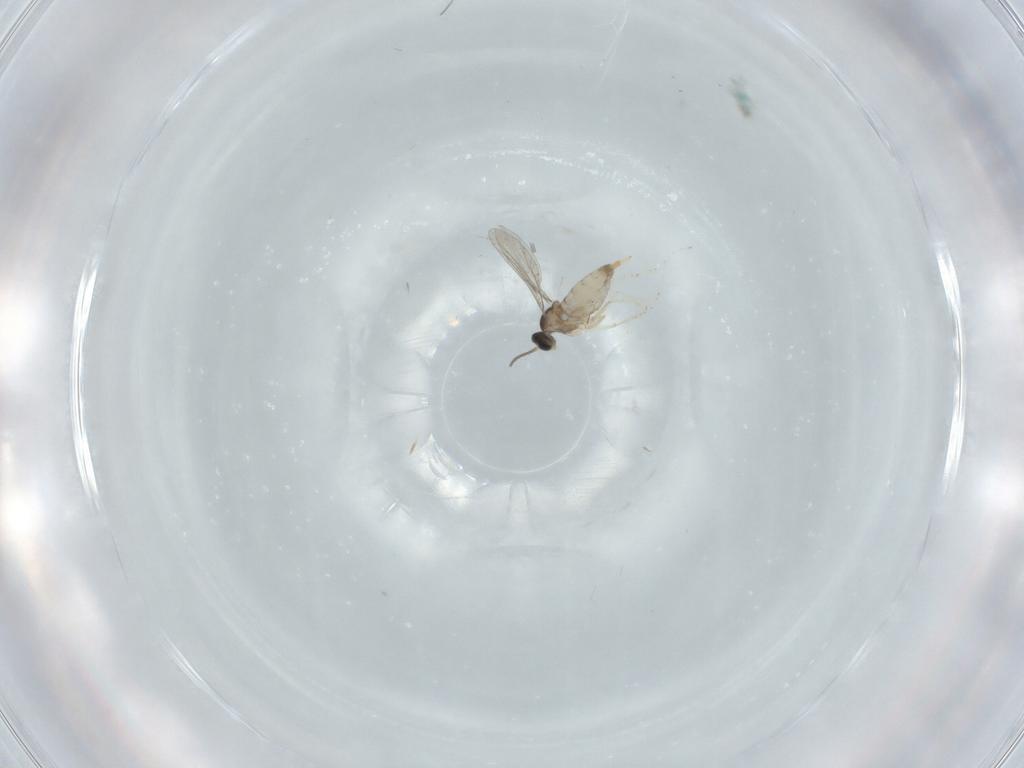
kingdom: Animalia
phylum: Arthropoda
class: Insecta
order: Diptera
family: Cecidomyiidae
